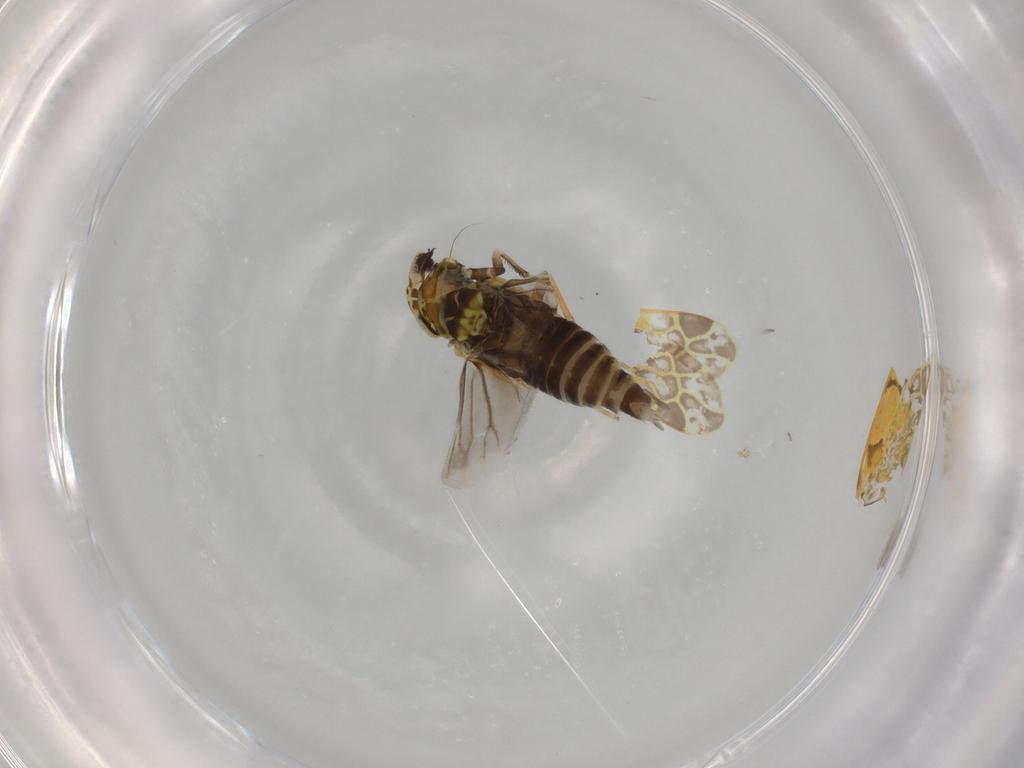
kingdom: Animalia
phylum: Arthropoda
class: Insecta
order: Hemiptera
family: Cicadellidae
